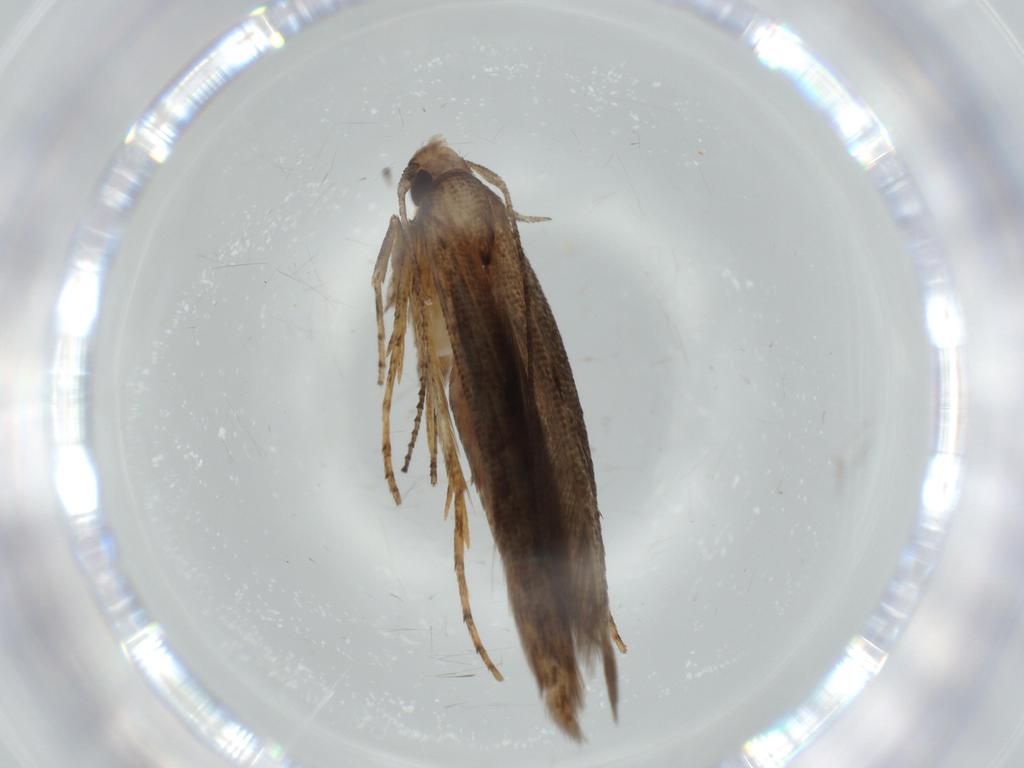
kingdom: Animalia
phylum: Arthropoda
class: Insecta
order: Lepidoptera
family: Heliodinidae
